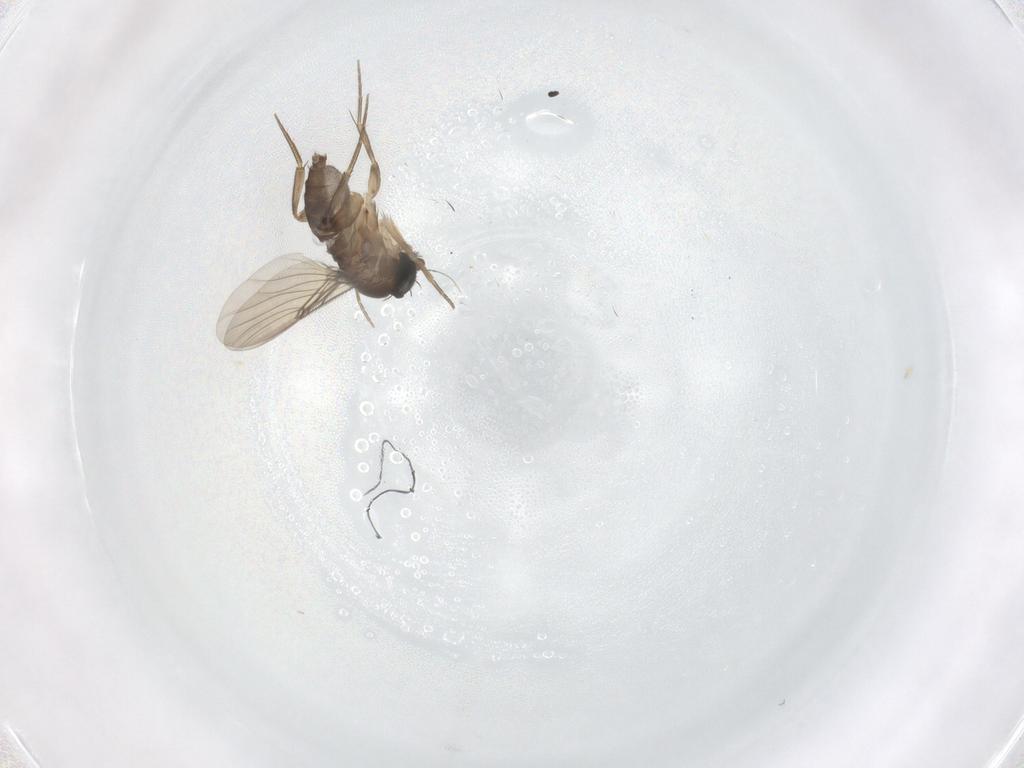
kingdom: Animalia
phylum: Arthropoda
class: Insecta
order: Diptera
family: Phoridae
